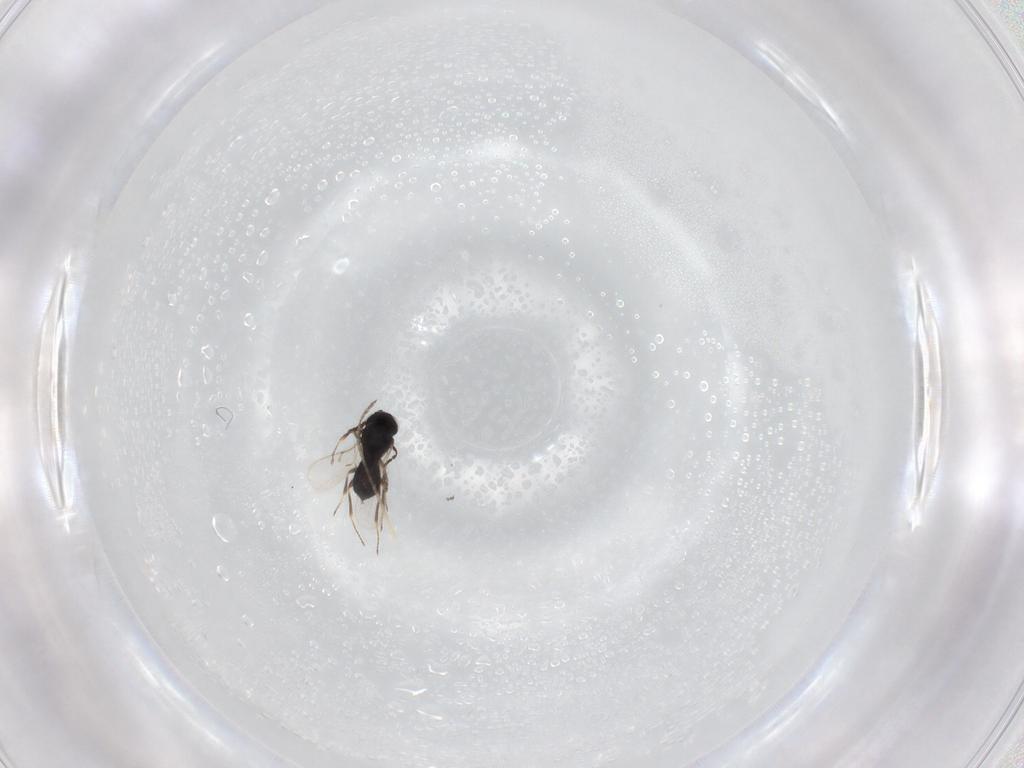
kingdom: Animalia
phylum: Arthropoda
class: Insecta
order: Hymenoptera
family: Scelionidae
